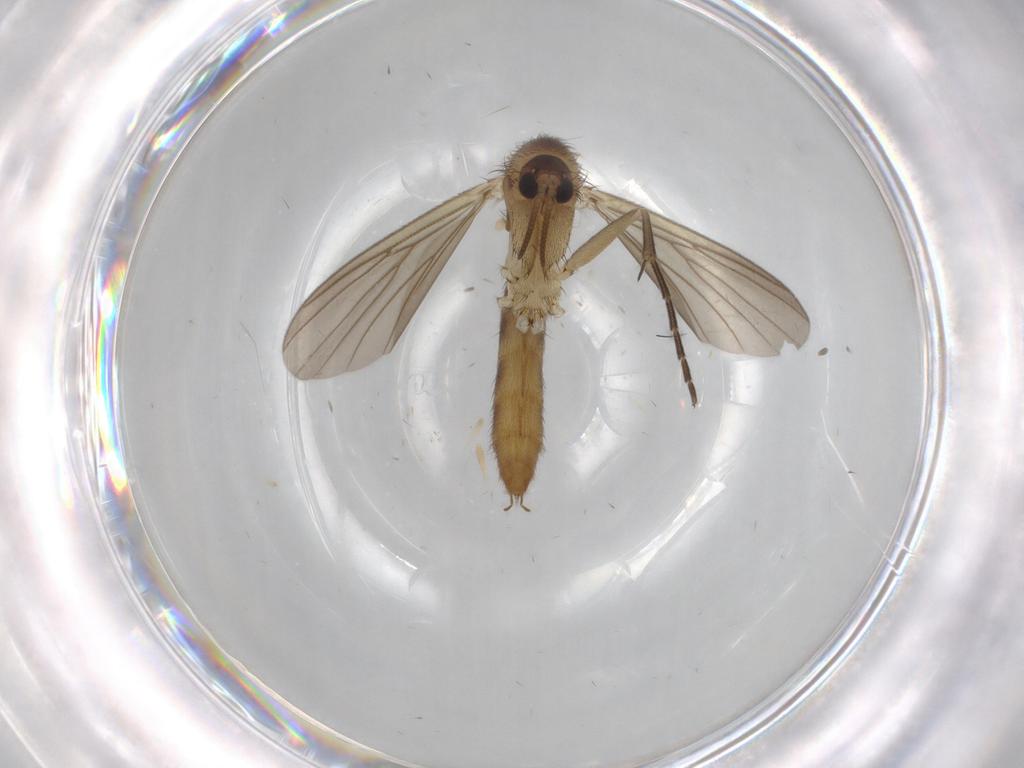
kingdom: Animalia
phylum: Arthropoda
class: Insecta
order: Diptera
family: Mycetophilidae
